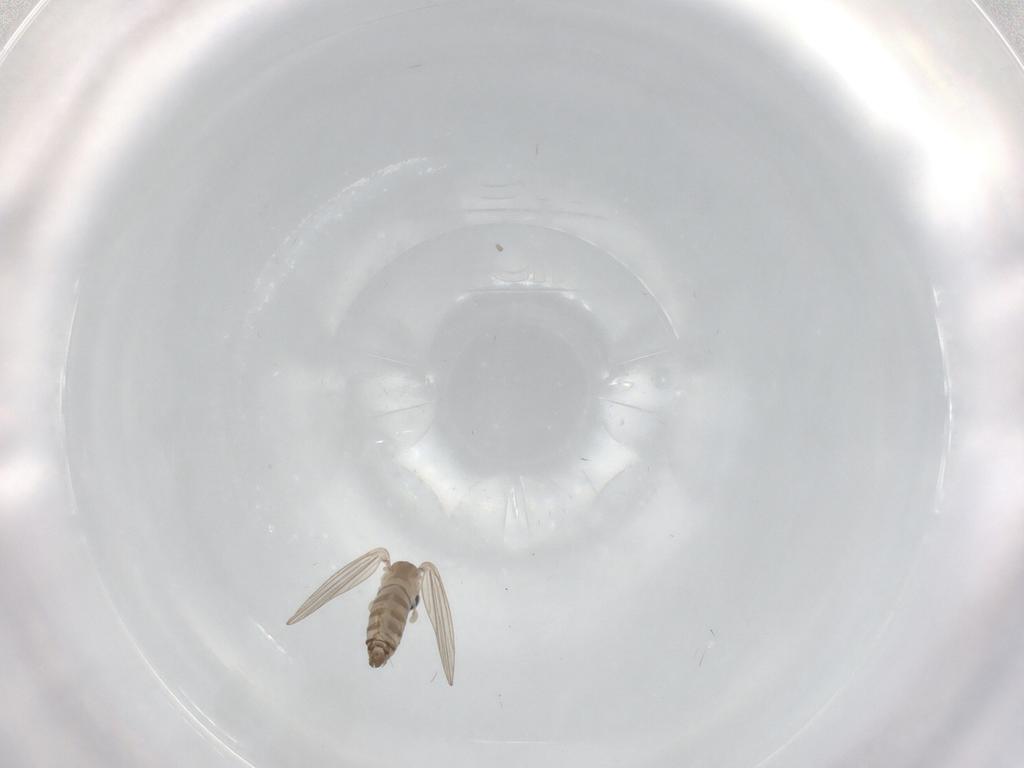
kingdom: Animalia
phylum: Arthropoda
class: Insecta
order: Diptera
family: Scatopsidae
